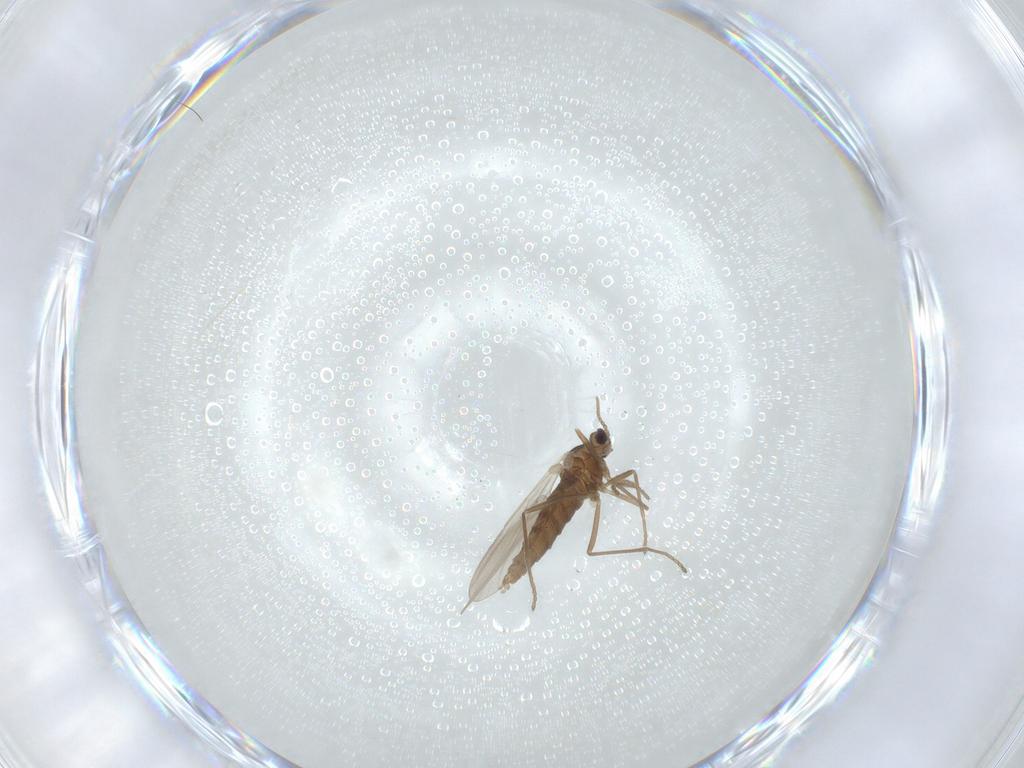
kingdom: Animalia
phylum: Arthropoda
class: Insecta
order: Diptera
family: Cecidomyiidae
